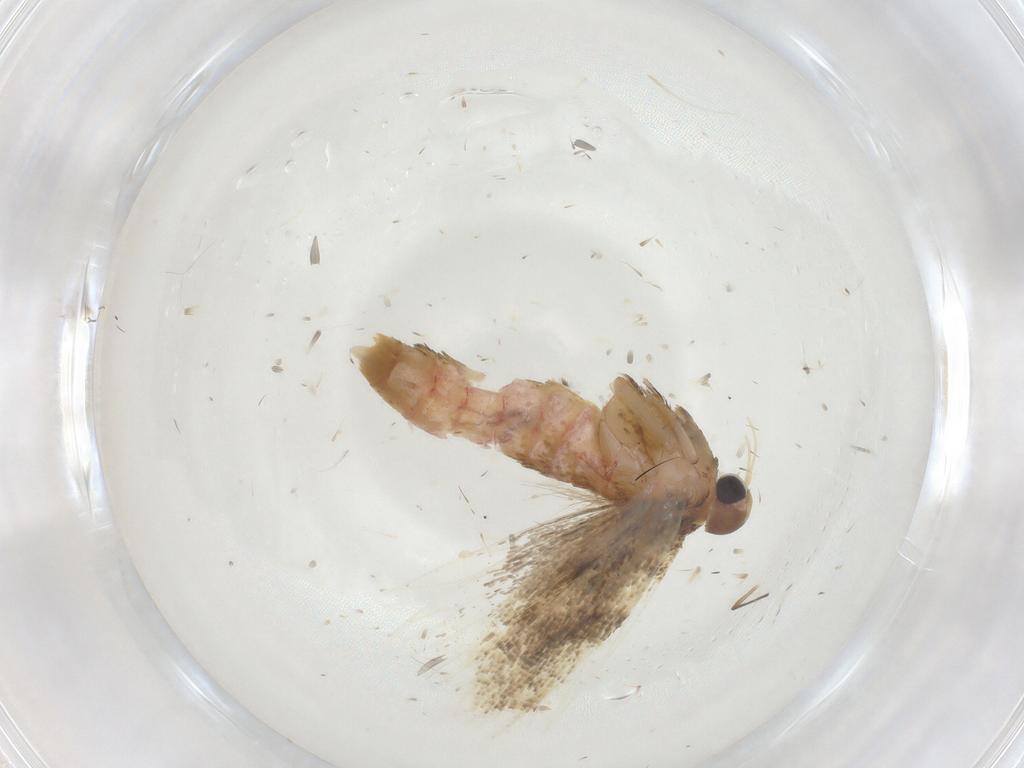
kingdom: Animalia
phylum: Arthropoda
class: Insecta
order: Lepidoptera
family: Gelechiidae
